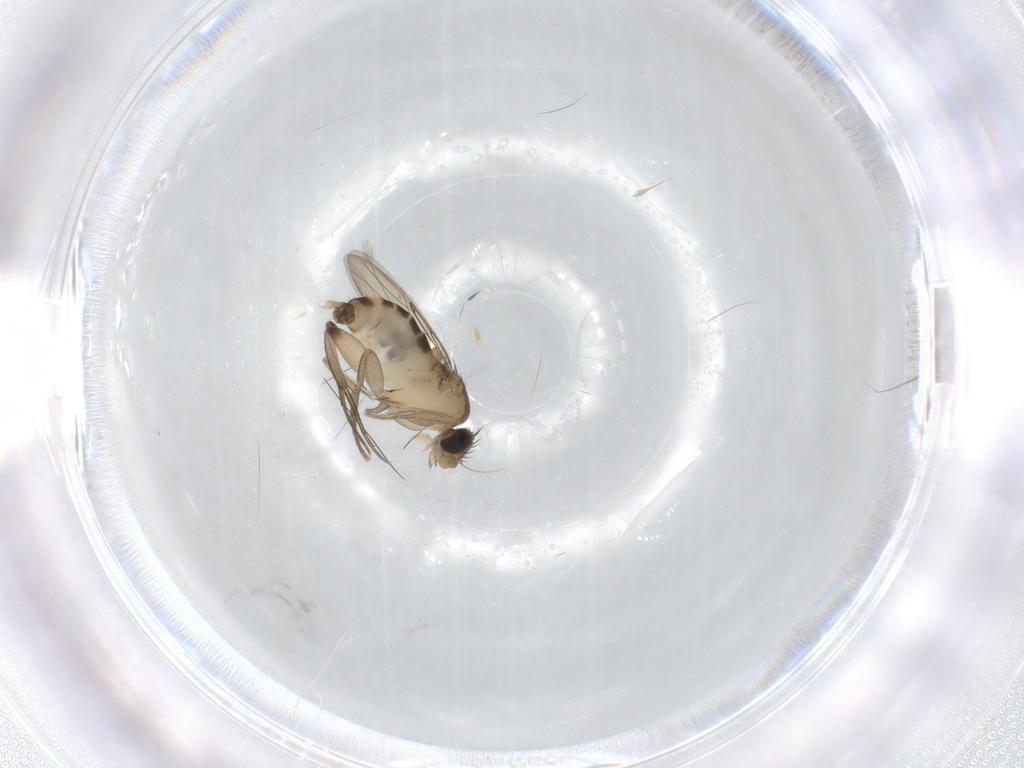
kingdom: Animalia
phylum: Arthropoda
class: Insecta
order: Diptera
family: Phoridae
